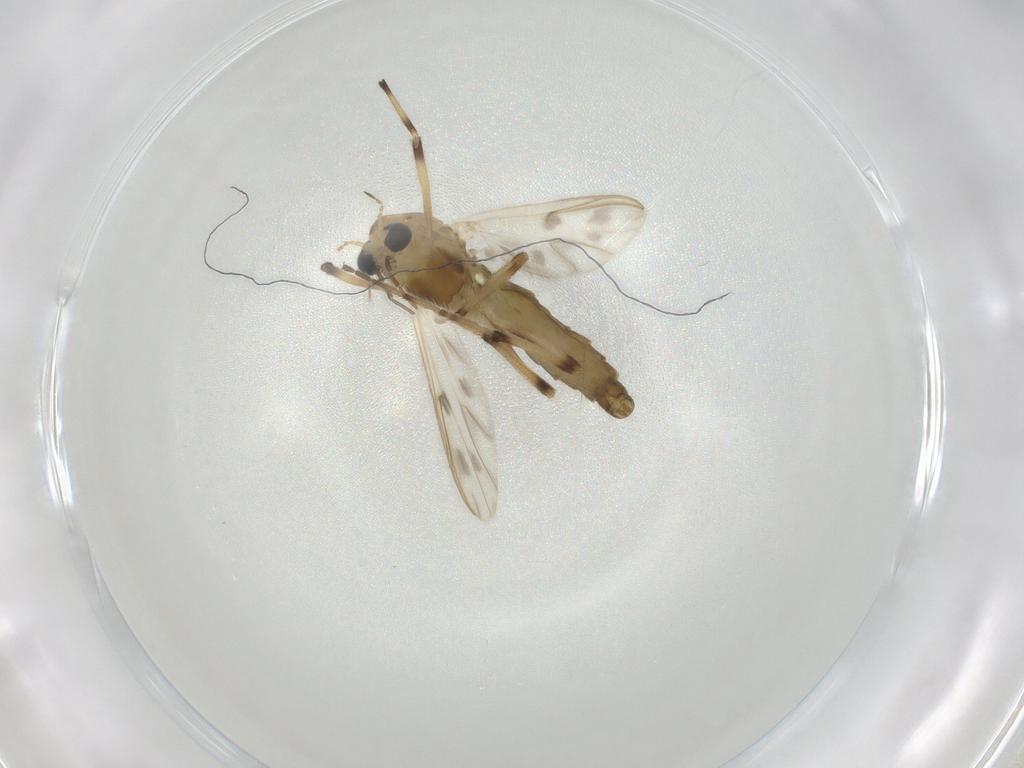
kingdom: Animalia
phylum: Arthropoda
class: Insecta
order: Diptera
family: Chironomidae
